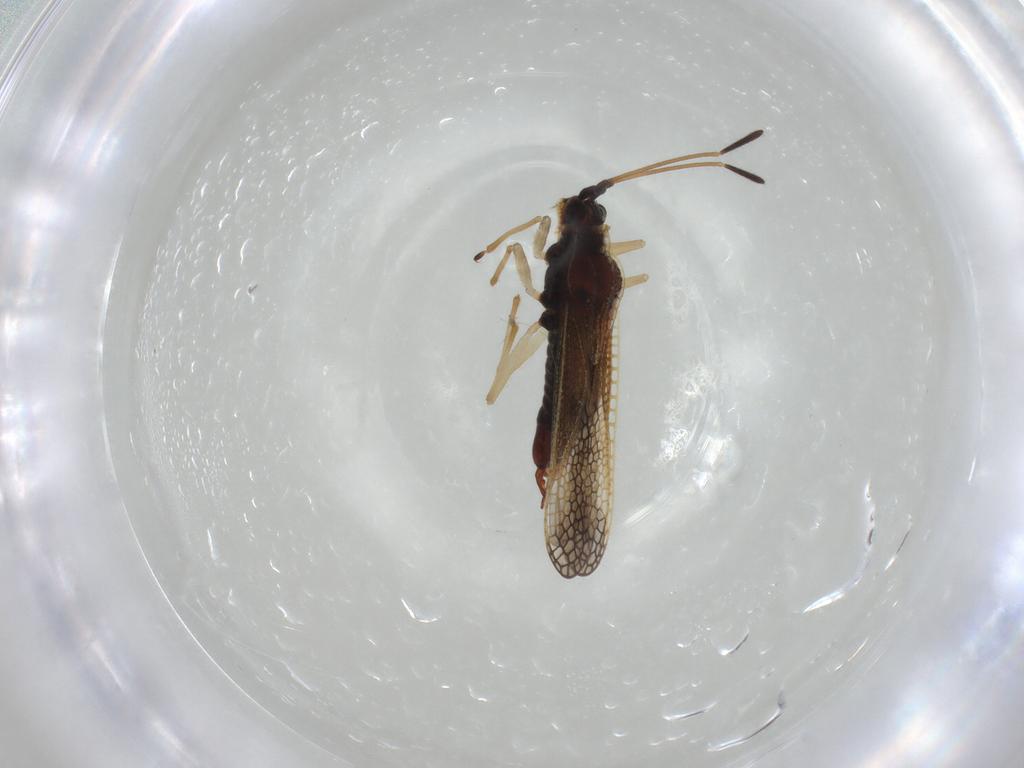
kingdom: Animalia
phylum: Arthropoda
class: Insecta
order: Hemiptera
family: Tingidae
